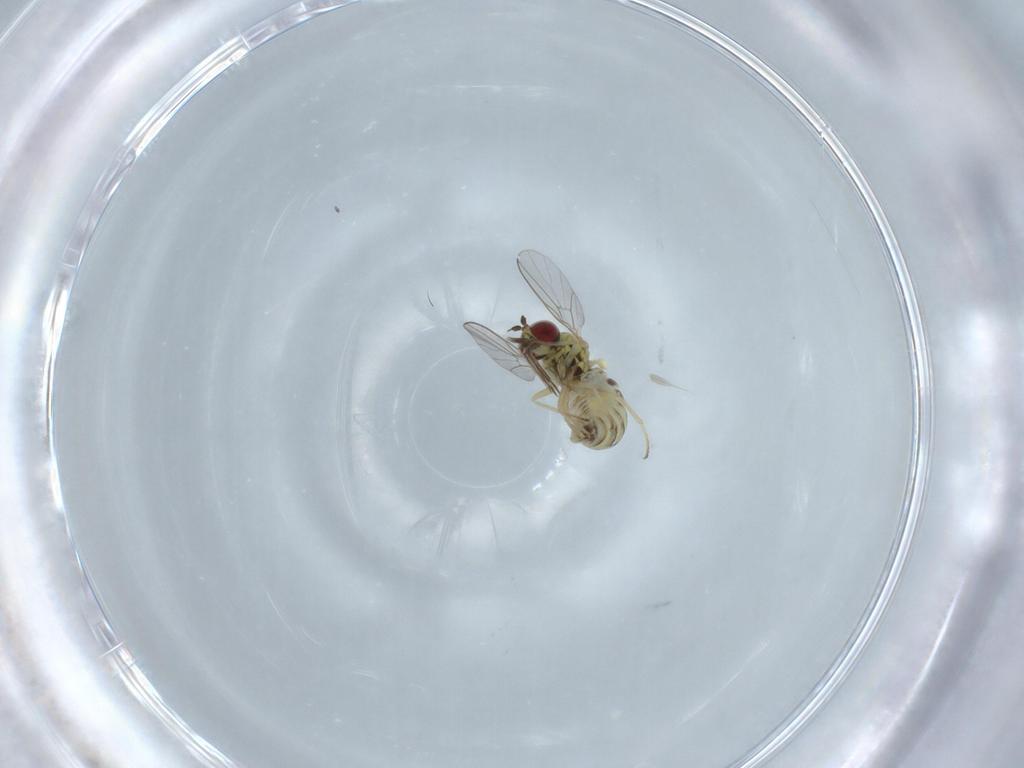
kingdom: Animalia
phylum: Arthropoda
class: Insecta
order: Diptera
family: Bombyliidae
